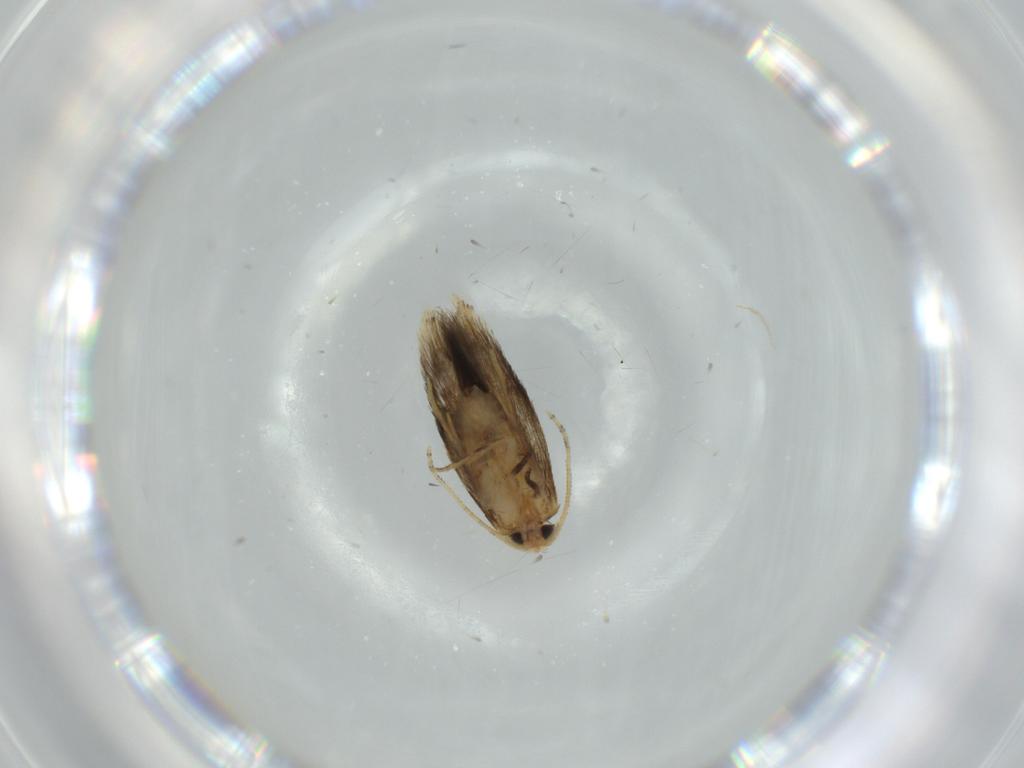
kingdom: Animalia
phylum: Arthropoda
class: Insecta
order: Lepidoptera
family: Nepticulidae
